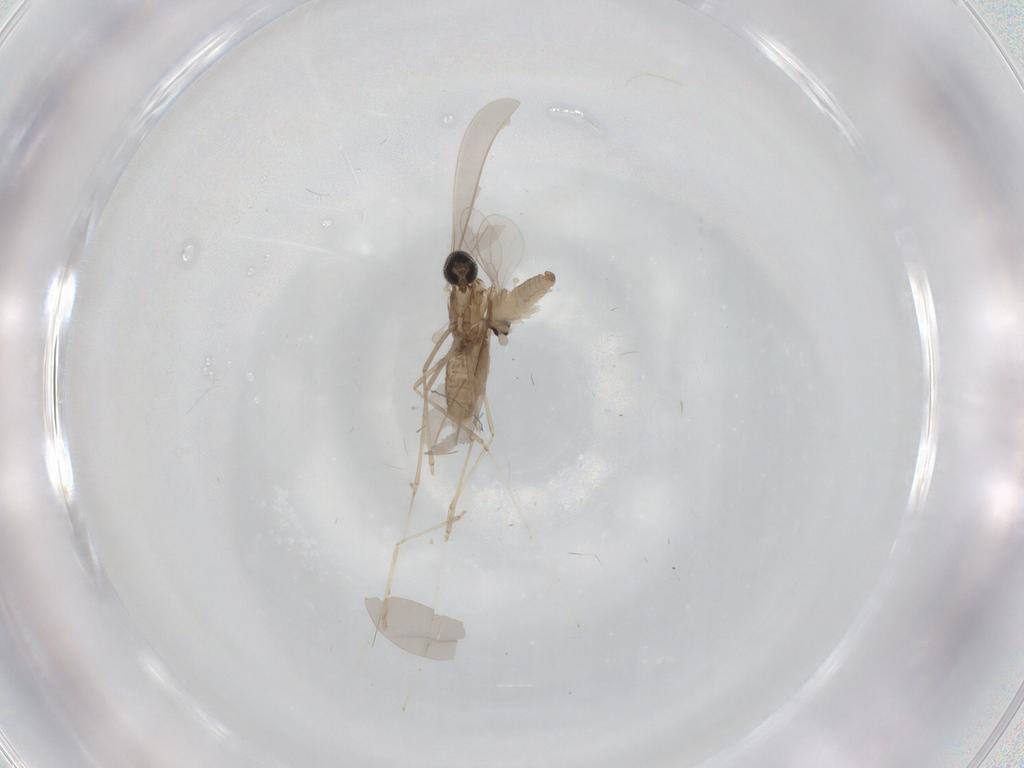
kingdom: Animalia
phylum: Arthropoda
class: Insecta
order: Diptera
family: Cecidomyiidae
